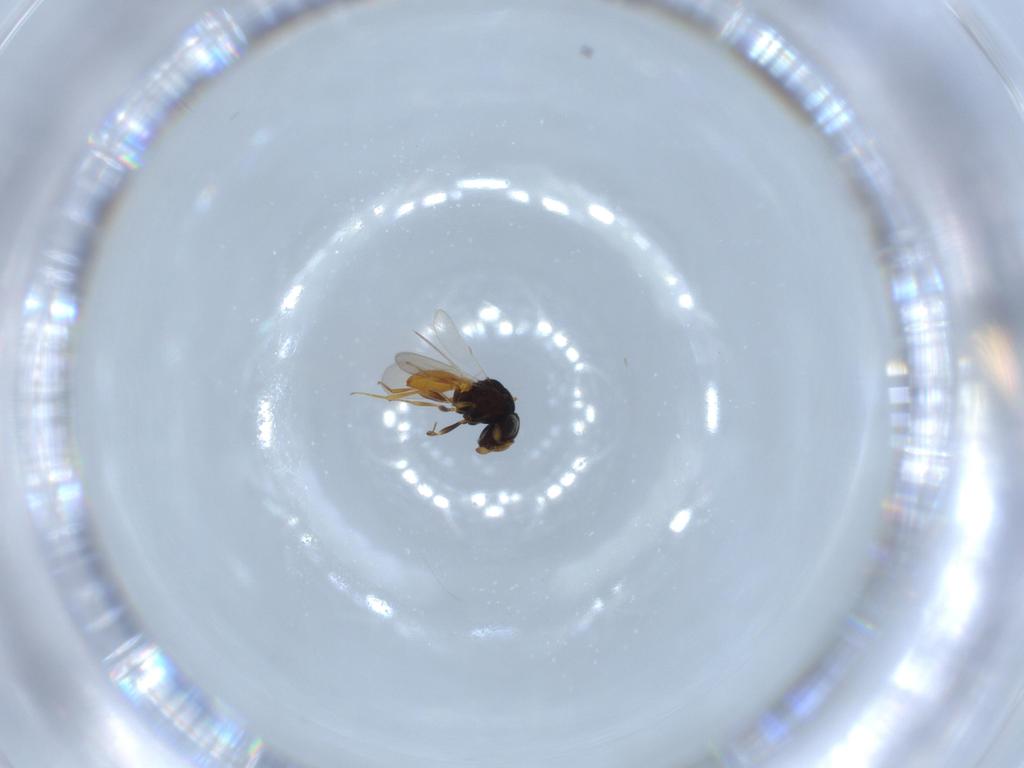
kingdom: Animalia
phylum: Arthropoda
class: Insecta
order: Hymenoptera
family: Scelionidae
